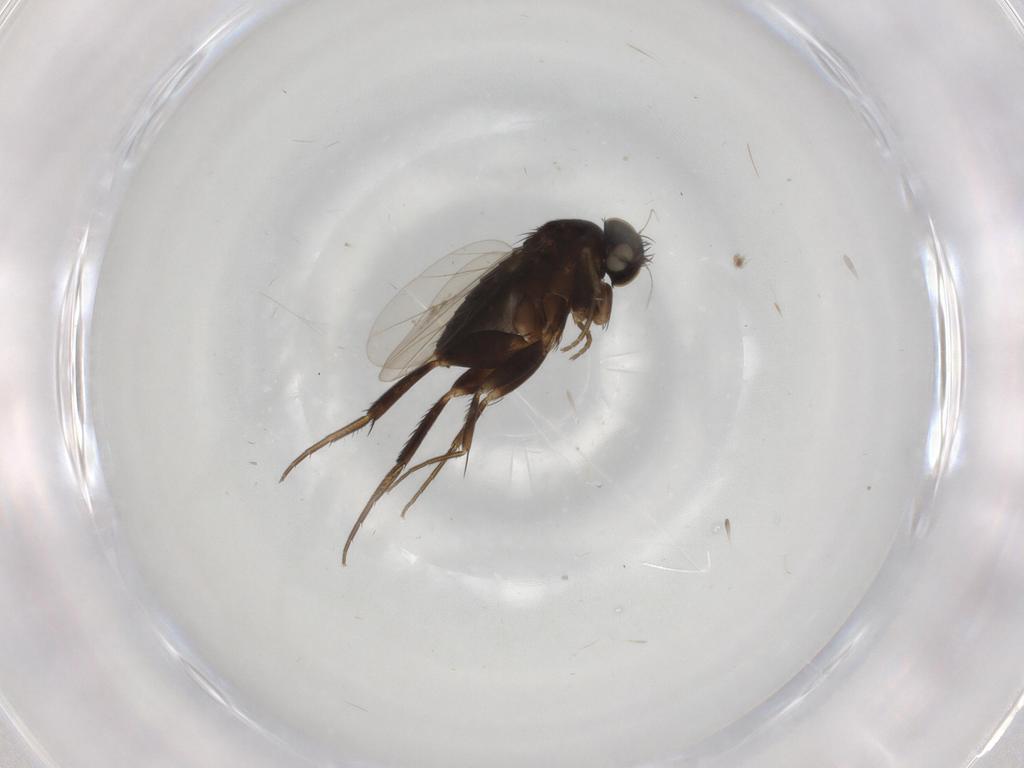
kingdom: Animalia
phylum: Arthropoda
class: Insecta
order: Diptera
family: Phoridae
